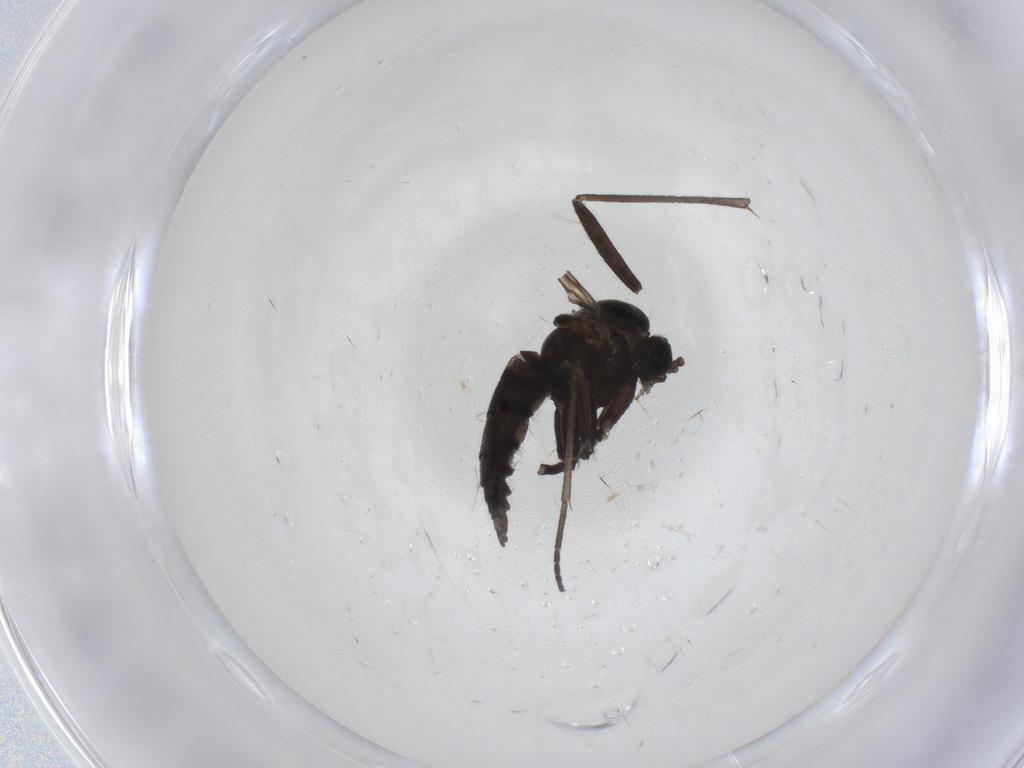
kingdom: Animalia
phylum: Arthropoda
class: Insecta
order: Diptera
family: Sciaridae
